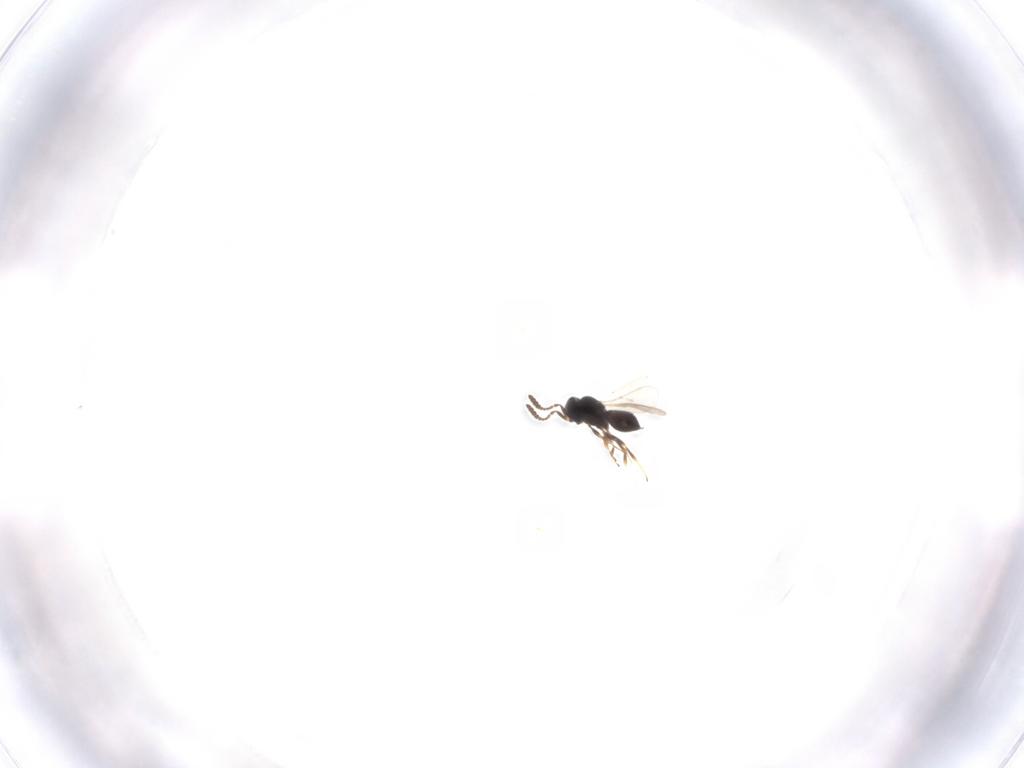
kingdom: Animalia
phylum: Arthropoda
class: Insecta
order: Hymenoptera
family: Scelionidae
